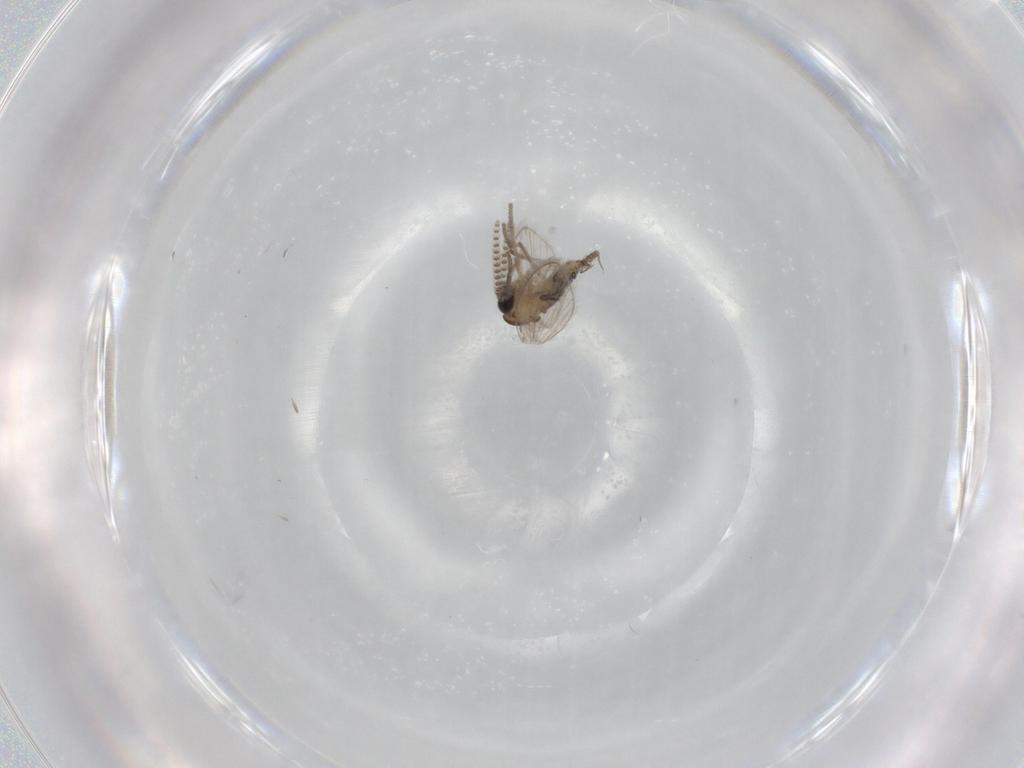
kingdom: Animalia
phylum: Arthropoda
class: Insecta
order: Diptera
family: Psychodidae
